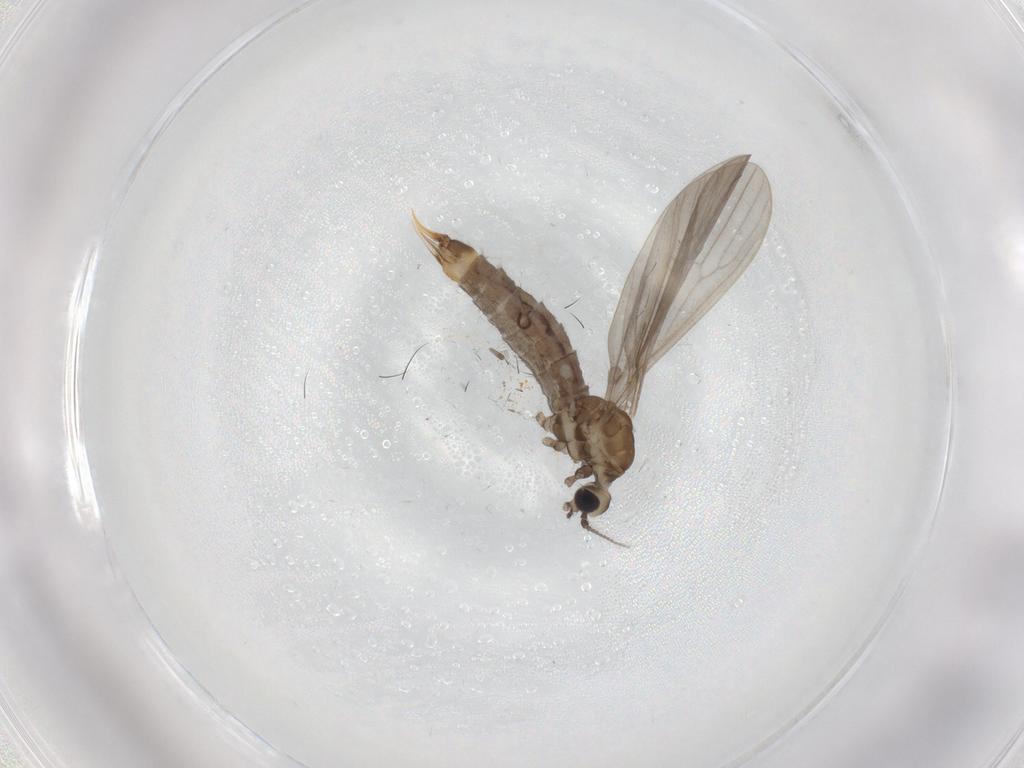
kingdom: Animalia
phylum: Arthropoda
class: Insecta
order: Diptera
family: Limoniidae
